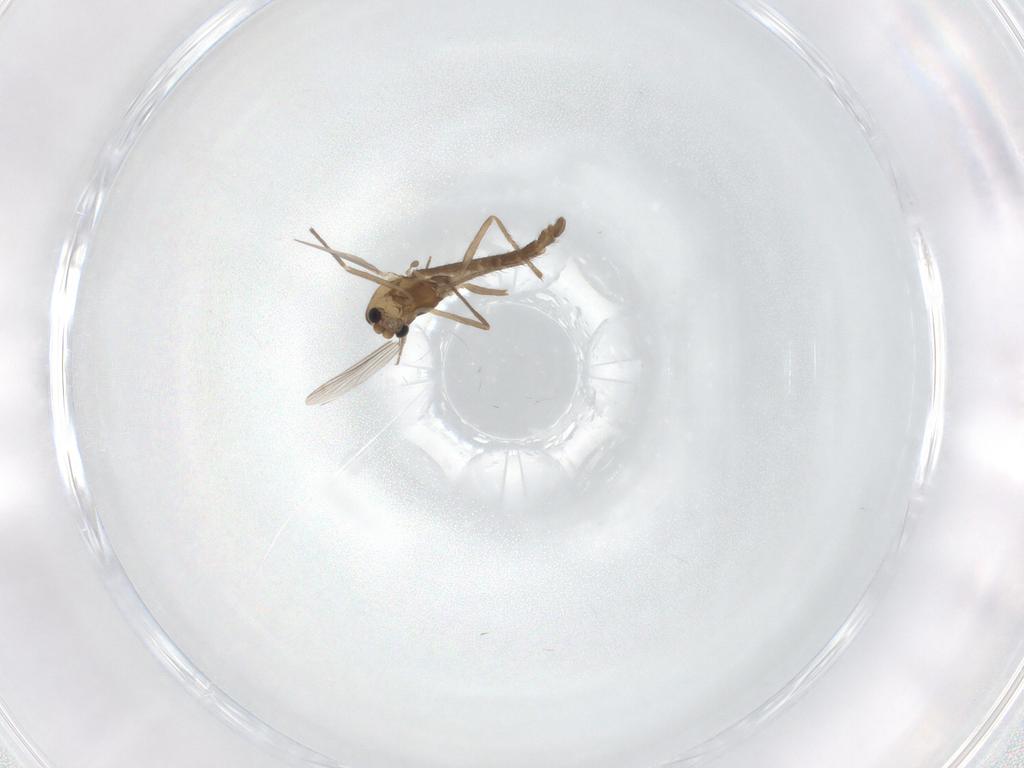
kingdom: Animalia
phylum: Arthropoda
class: Insecta
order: Diptera
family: Chironomidae
